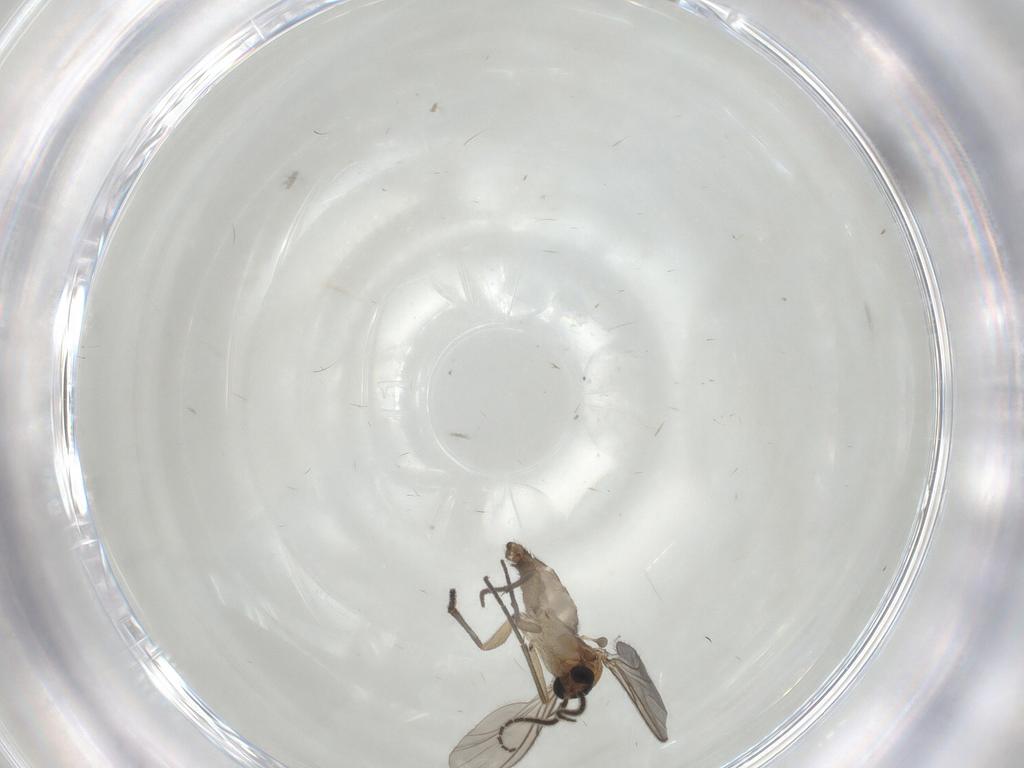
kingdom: Animalia
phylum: Arthropoda
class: Insecta
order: Diptera
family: Sciaridae
